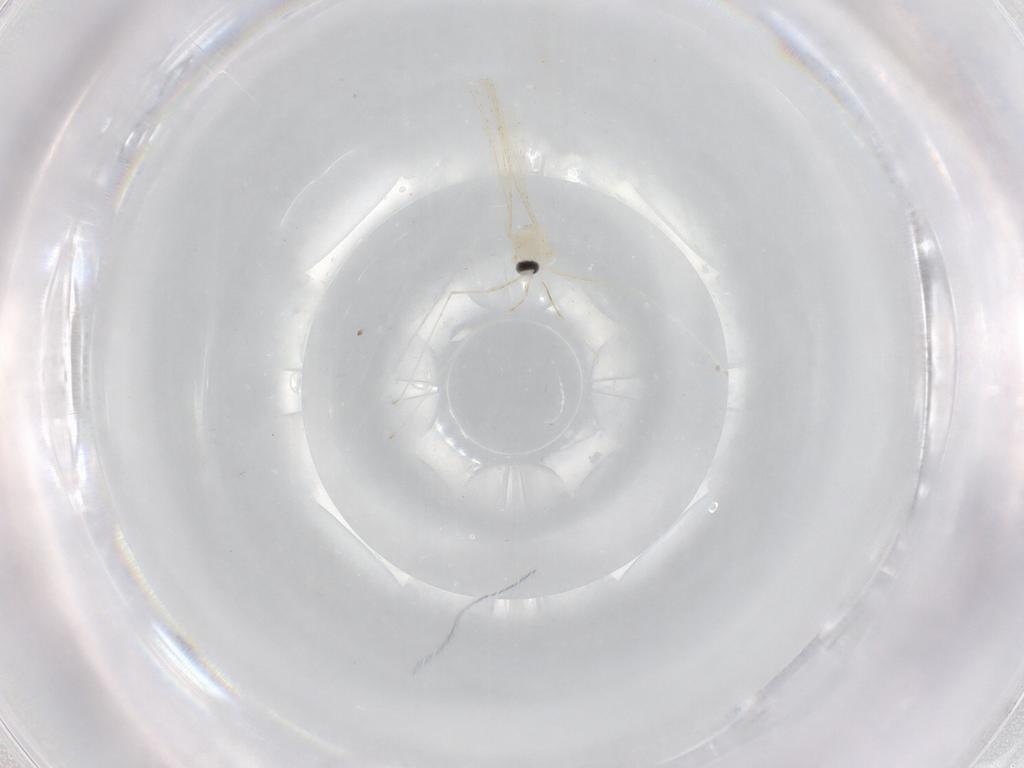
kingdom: Animalia
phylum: Arthropoda
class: Insecta
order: Diptera
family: Cecidomyiidae
